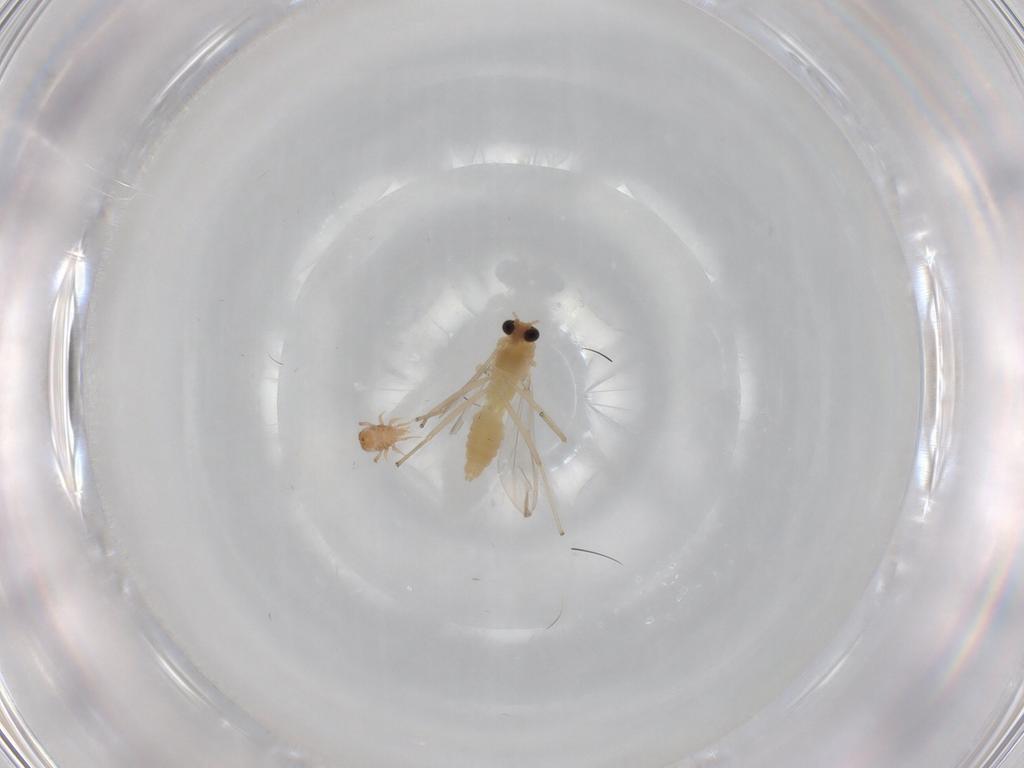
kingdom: Animalia
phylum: Arthropoda
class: Insecta
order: Diptera
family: Chironomidae
